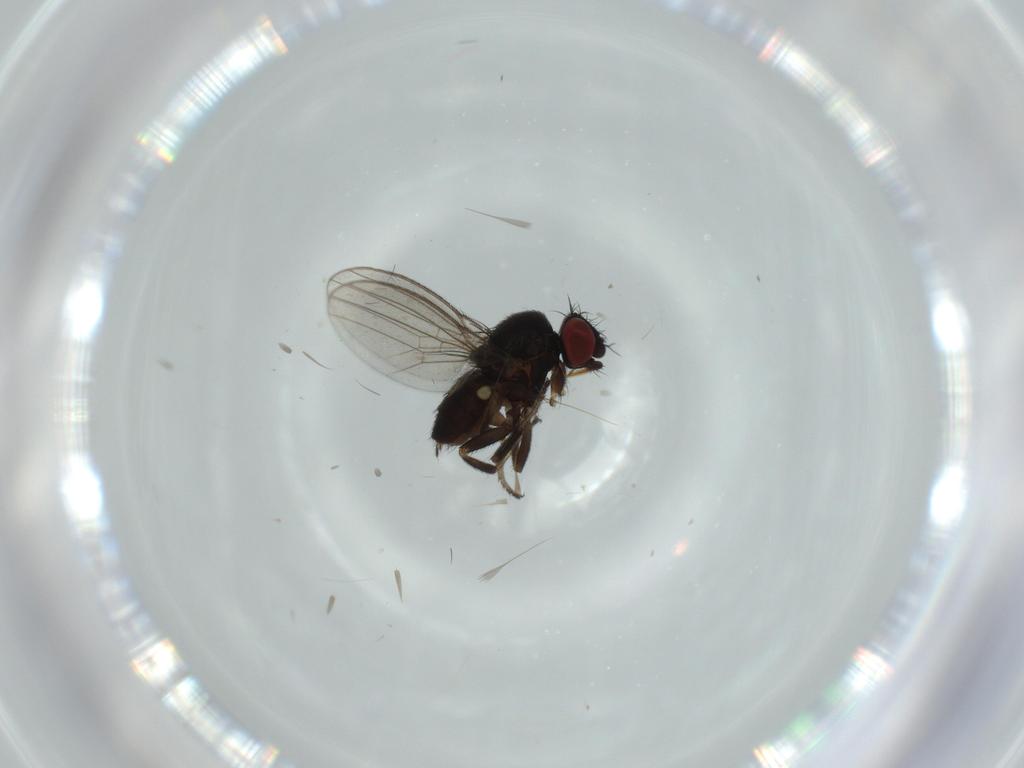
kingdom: Animalia
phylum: Arthropoda
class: Insecta
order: Diptera
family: Milichiidae
